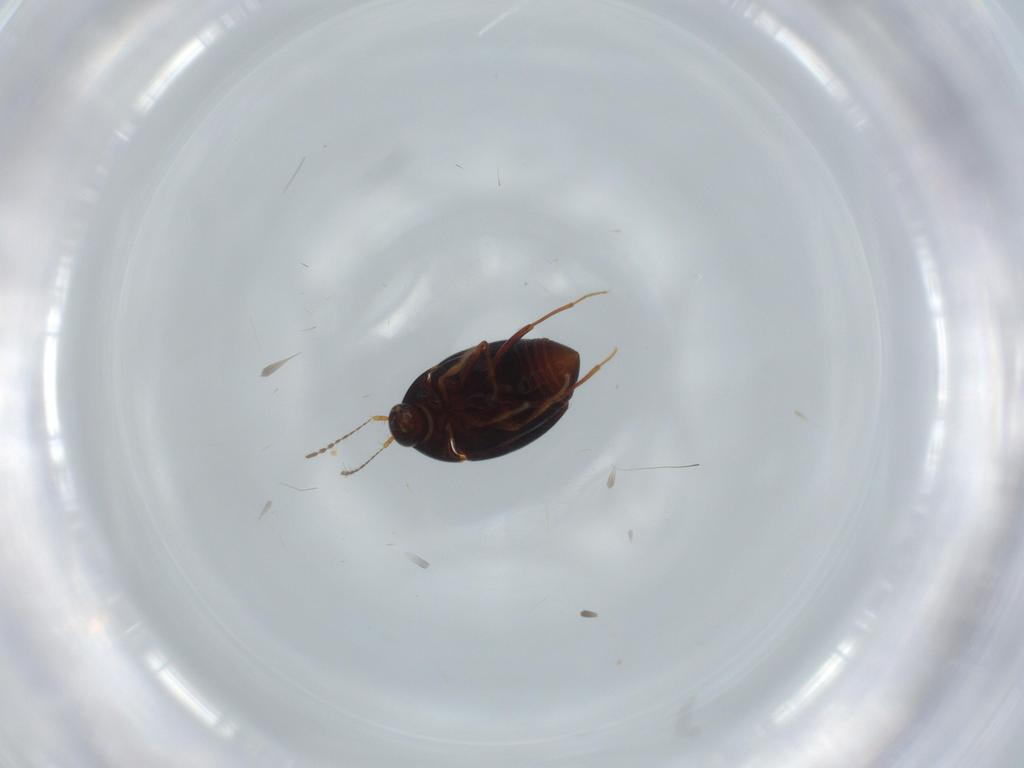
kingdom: Animalia
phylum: Arthropoda
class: Insecta
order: Coleoptera
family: Staphylinidae
